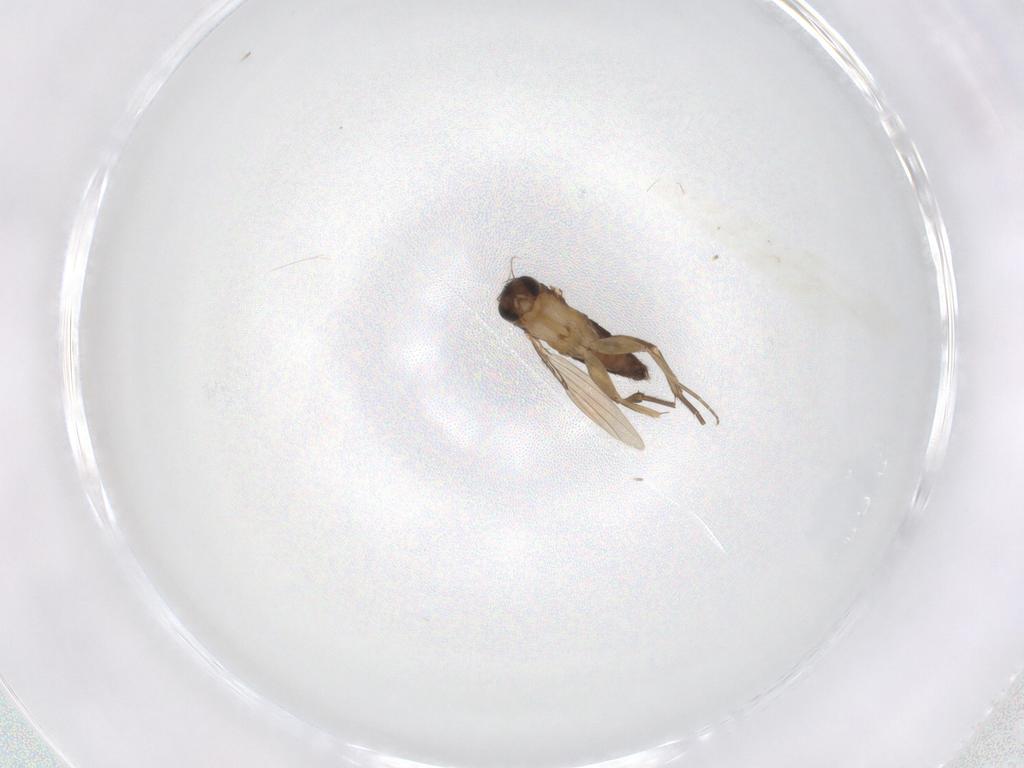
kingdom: Animalia
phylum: Arthropoda
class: Insecta
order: Diptera
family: Phoridae
